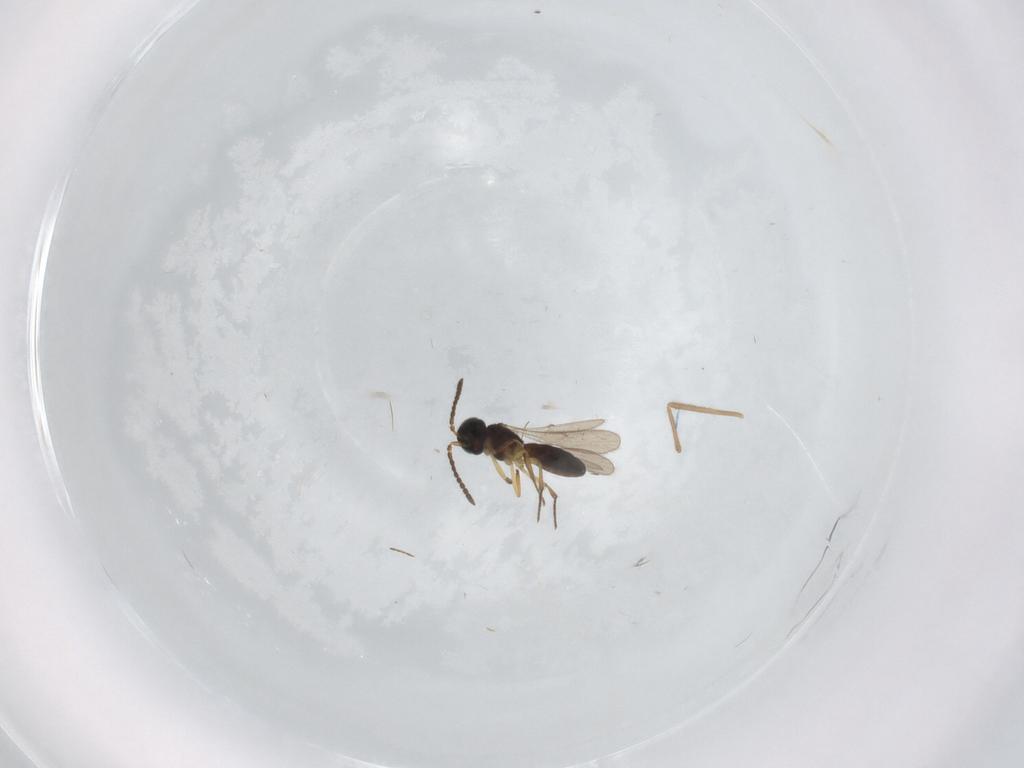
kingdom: Animalia
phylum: Arthropoda
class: Insecta
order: Hymenoptera
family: Scelionidae
